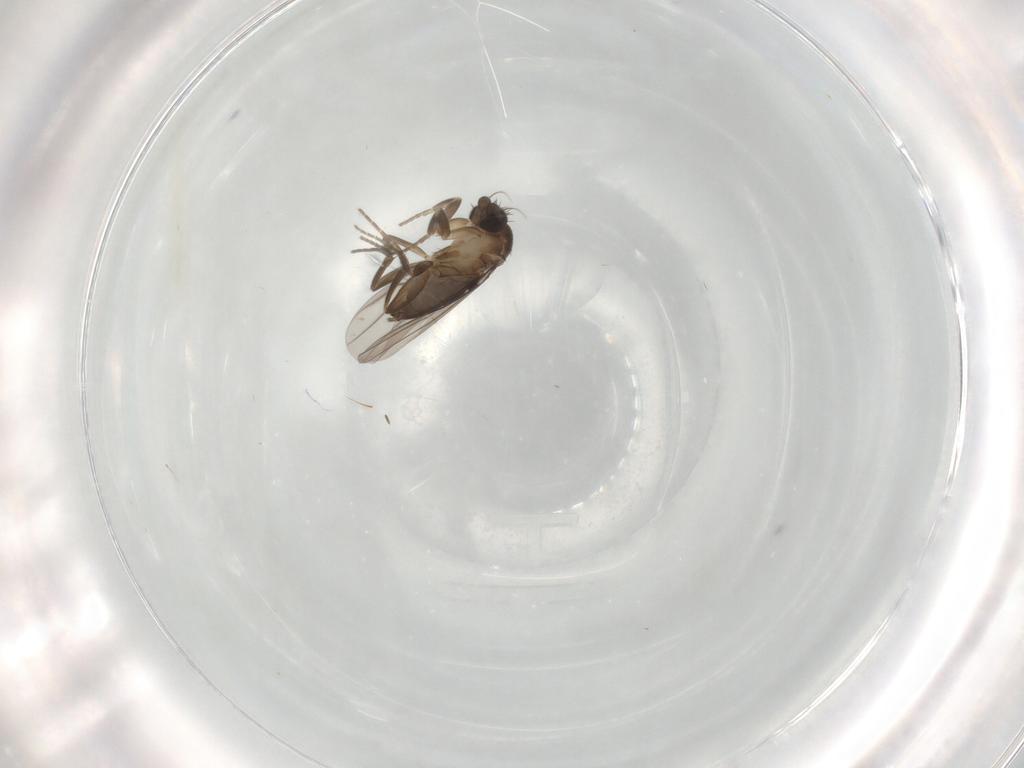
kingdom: Animalia
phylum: Arthropoda
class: Insecta
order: Diptera
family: Phoridae
